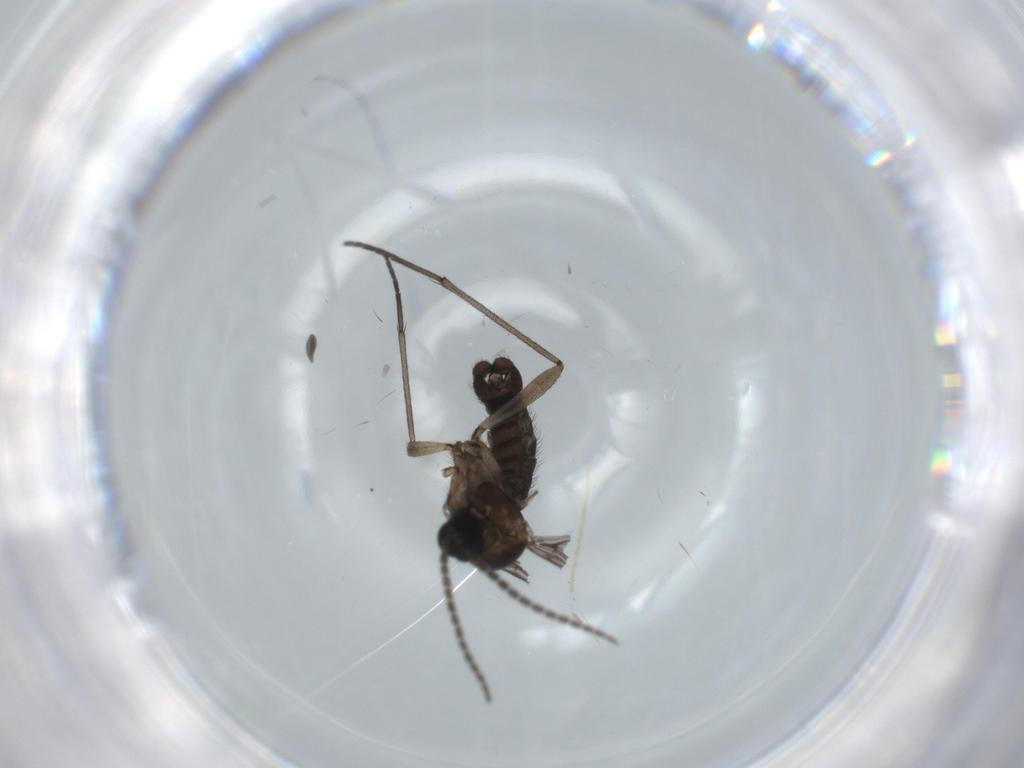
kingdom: Animalia
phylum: Arthropoda
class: Insecta
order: Diptera
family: Sciaridae
